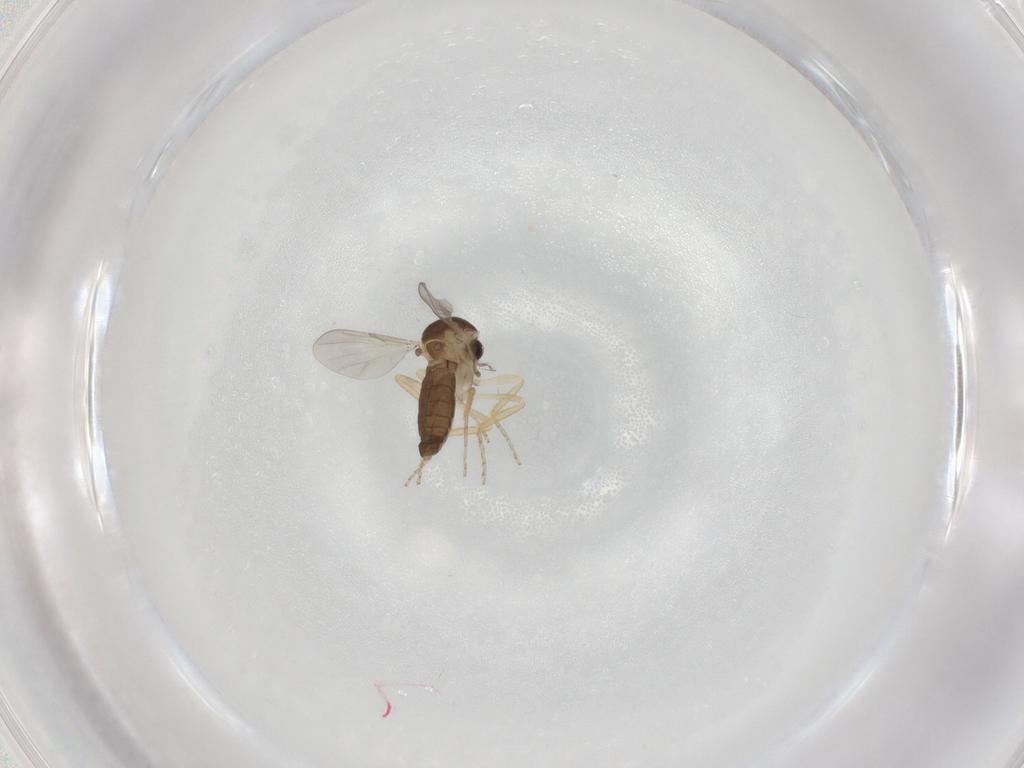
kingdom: Animalia
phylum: Arthropoda
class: Insecta
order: Diptera
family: Ceratopogonidae
